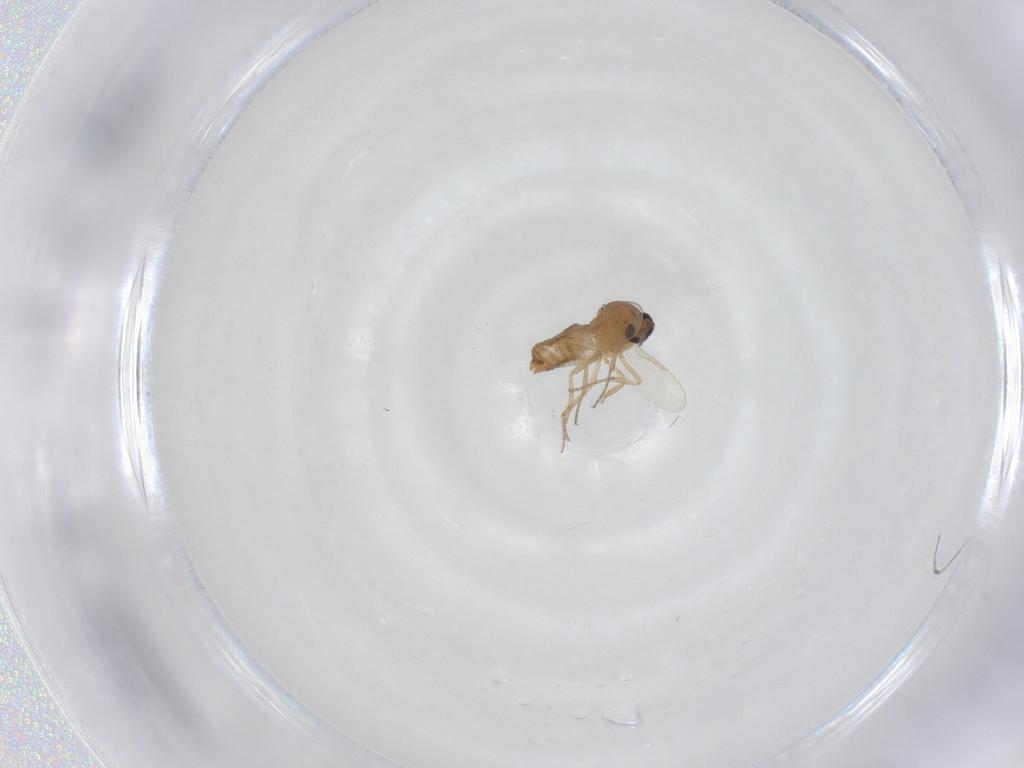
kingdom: Animalia
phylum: Arthropoda
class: Insecta
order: Diptera
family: Ceratopogonidae
